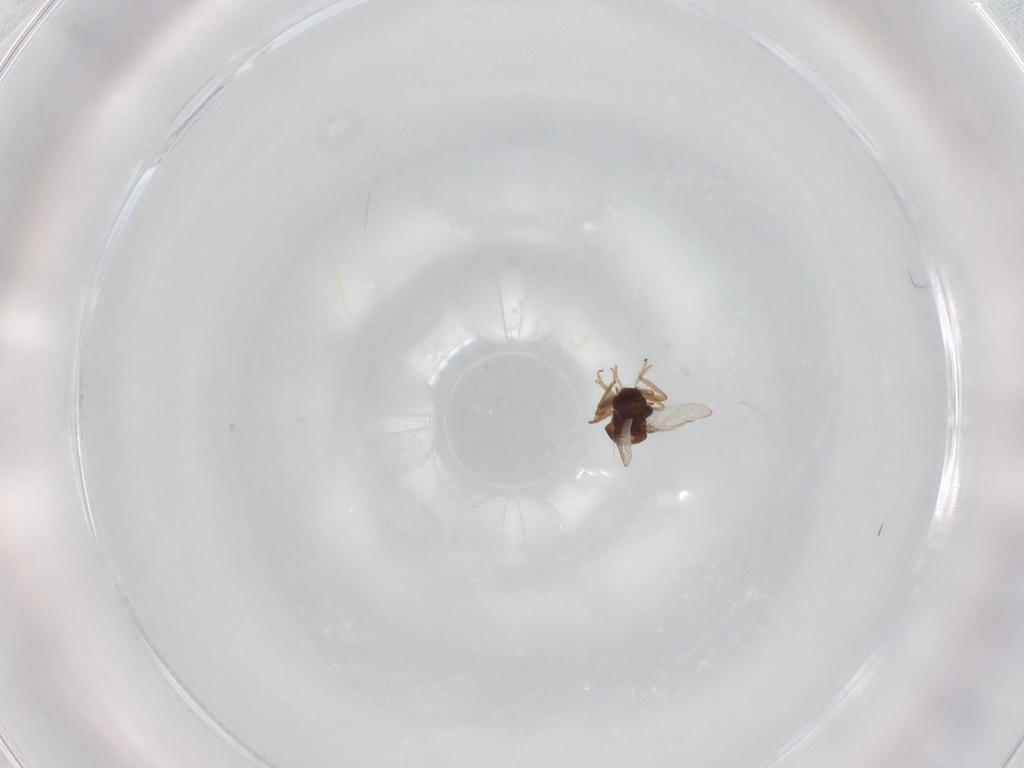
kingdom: Animalia
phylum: Arthropoda
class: Insecta
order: Diptera
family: Ceratopogonidae
